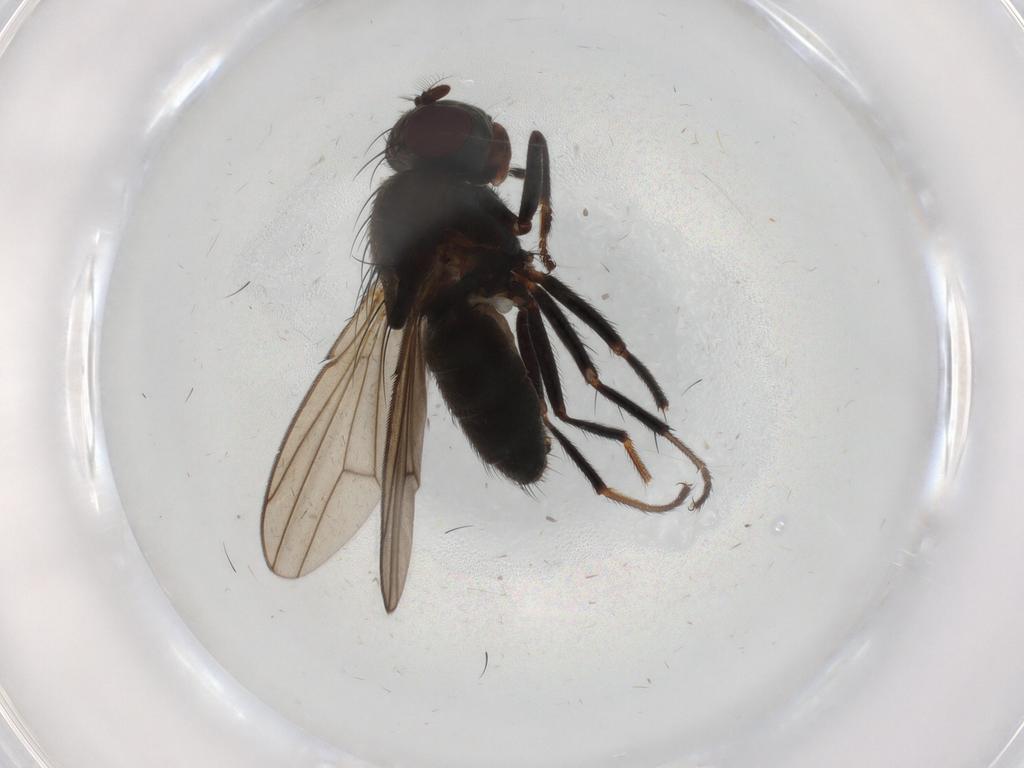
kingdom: Animalia
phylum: Arthropoda
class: Insecta
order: Diptera
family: Ephydridae
